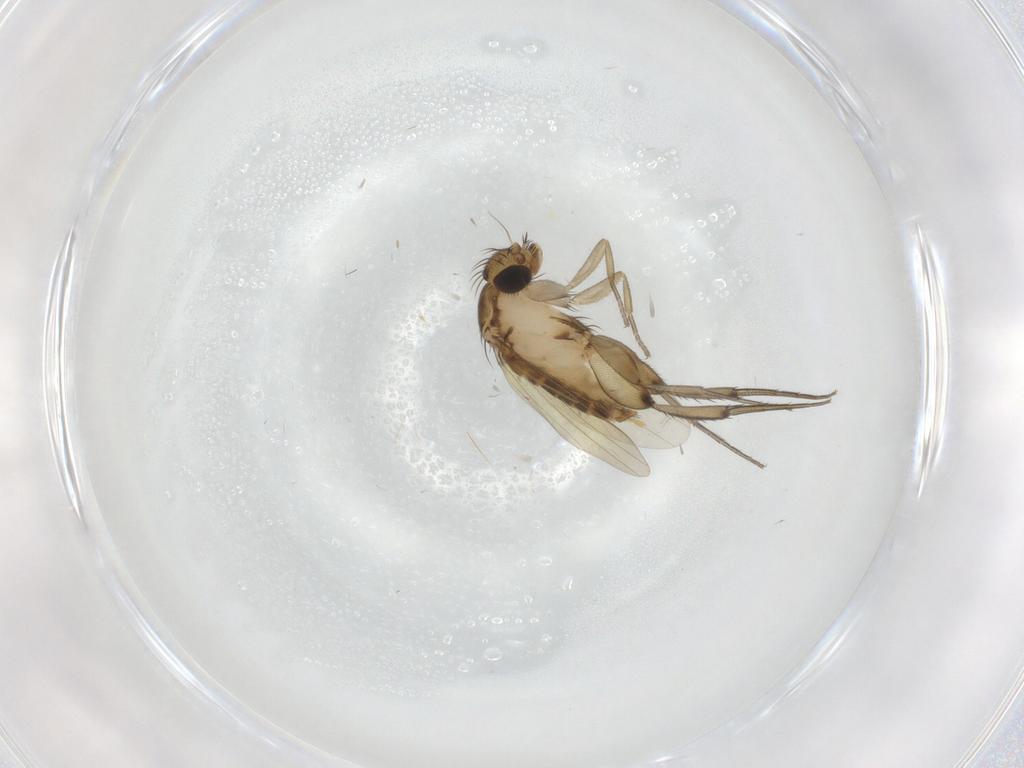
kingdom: Animalia
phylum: Arthropoda
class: Insecta
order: Diptera
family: Phoridae
